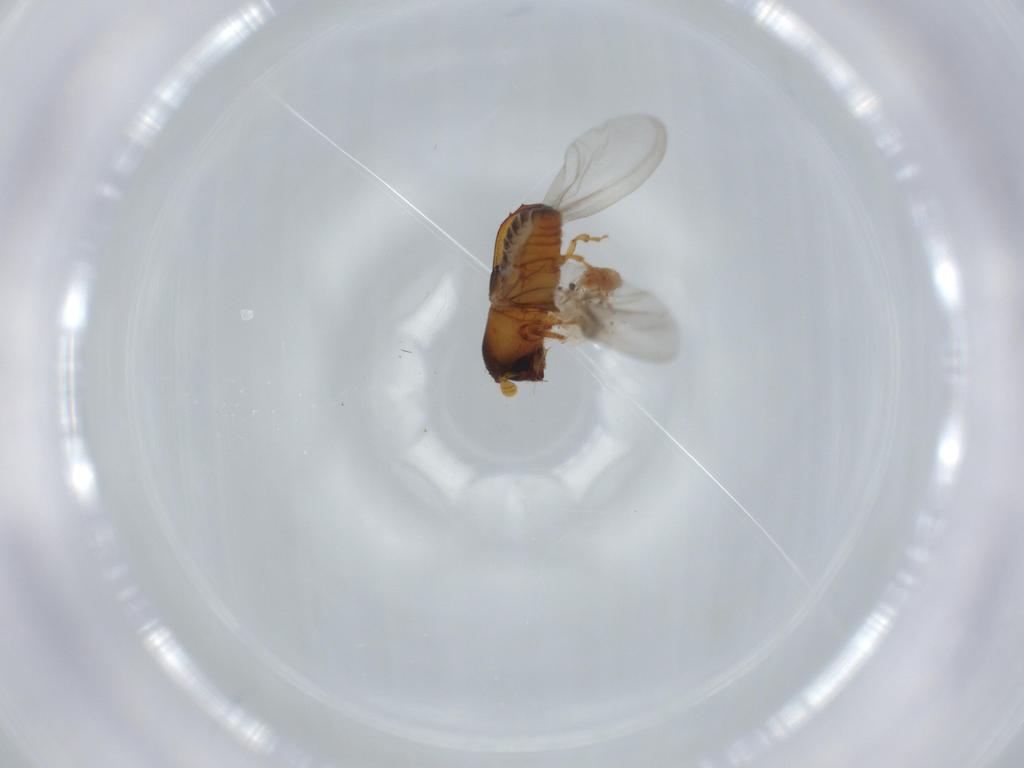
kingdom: Animalia
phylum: Arthropoda
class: Insecta
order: Coleoptera
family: Curculionidae
